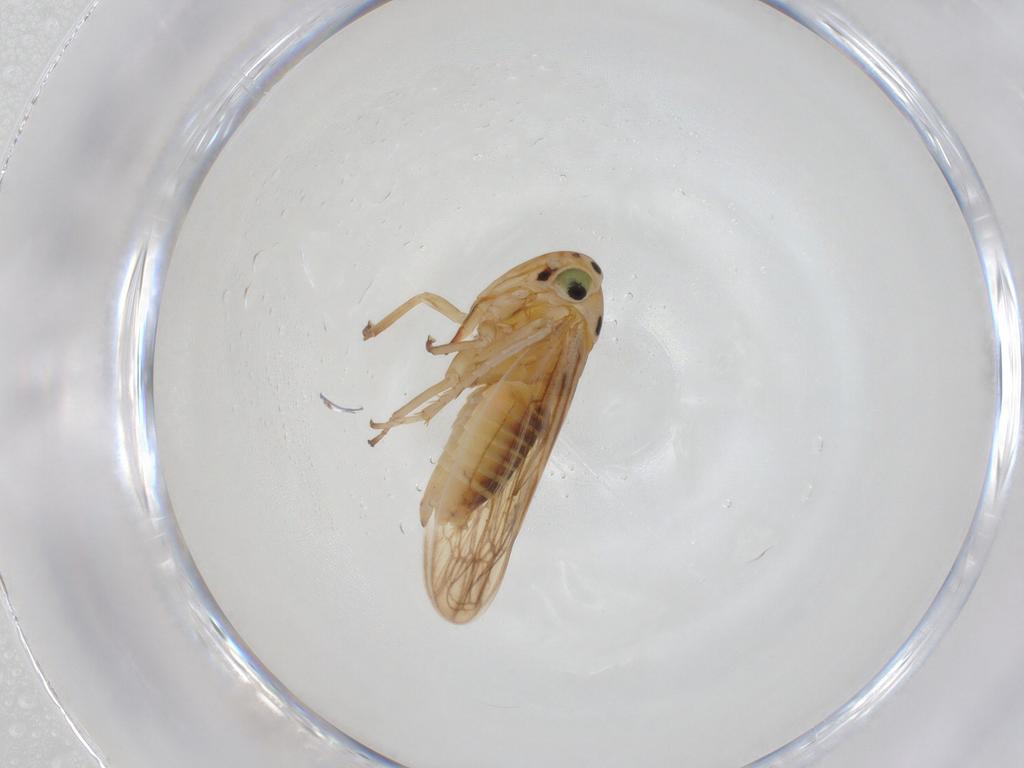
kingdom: Animalia
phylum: Arthropoda
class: Insecta
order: Hemiptera
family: Cicadellidae
